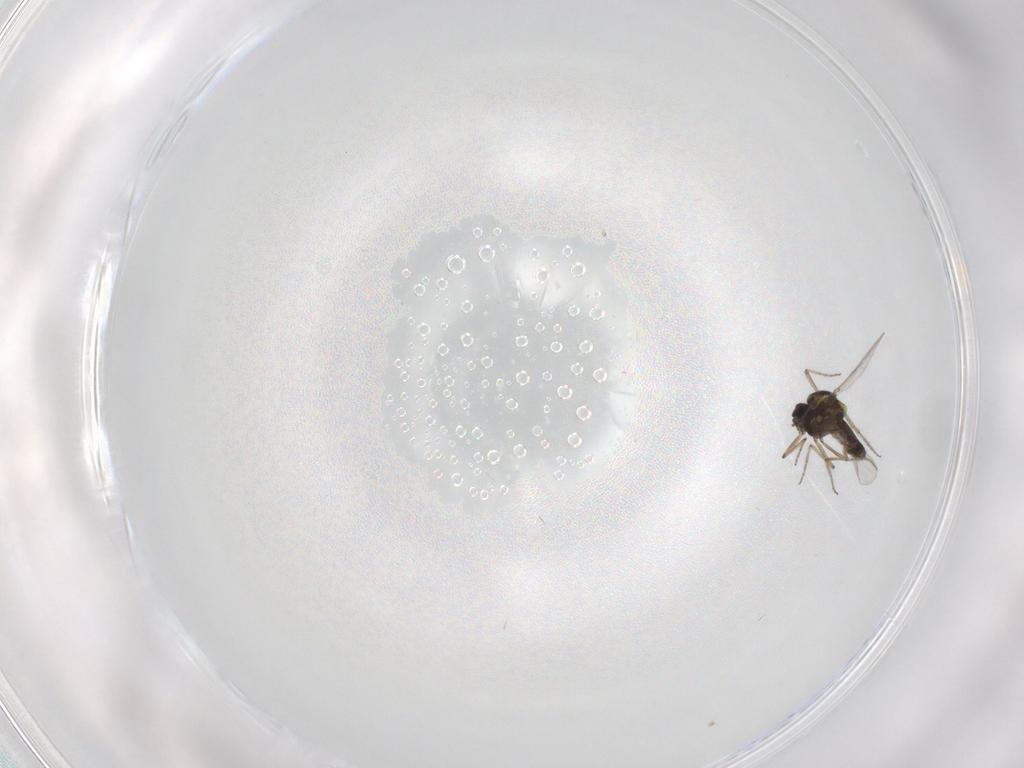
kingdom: Animalia
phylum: Arthropoda
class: Insecta
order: Diptera
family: Ceratopogonidae
